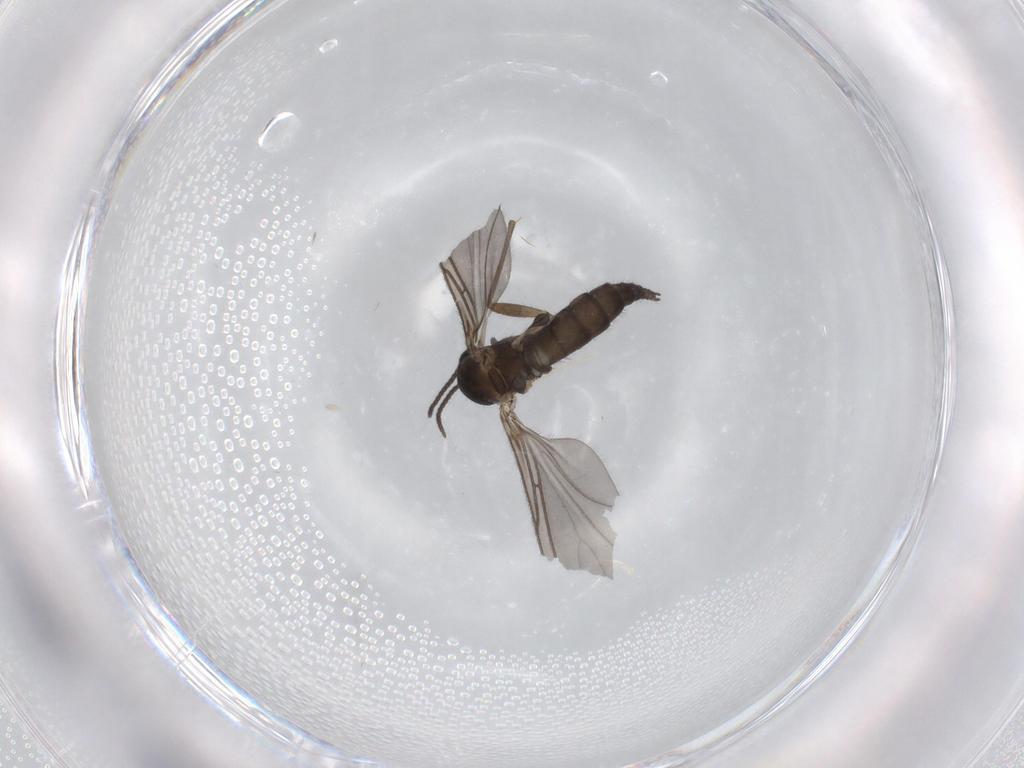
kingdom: Animalia
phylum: Arthropoda
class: Insecta
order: Diptera
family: Sciaridae
